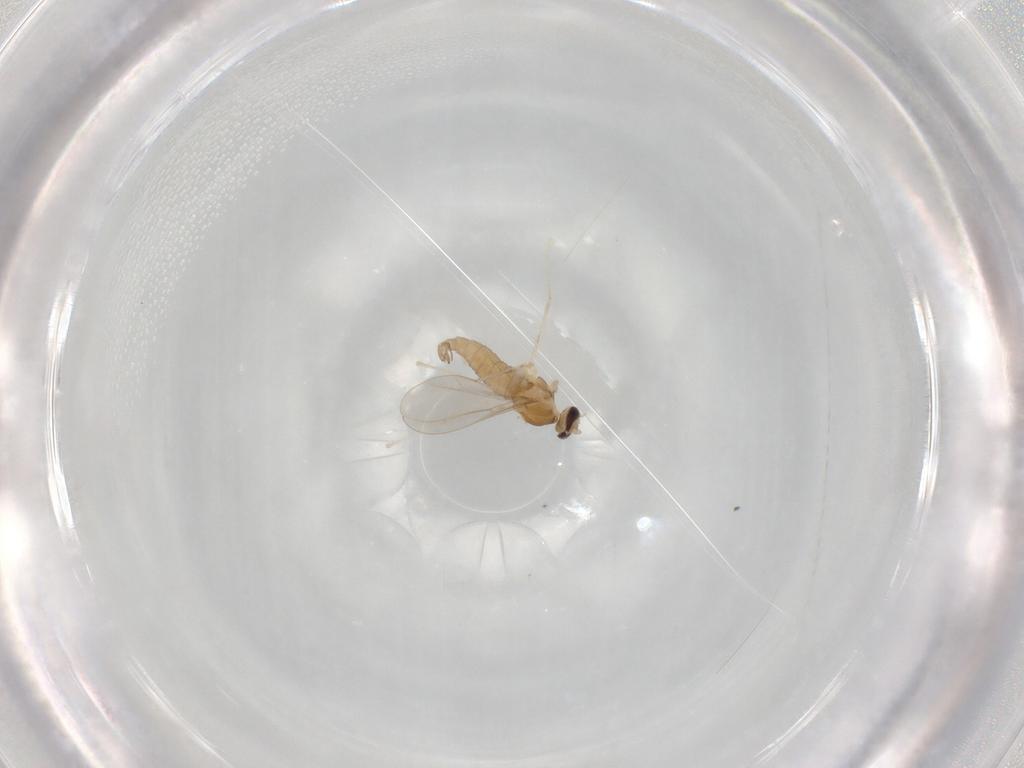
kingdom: Animalia
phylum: Arthropoda
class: Insecta
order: Diptera
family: Cecidomyiidae
